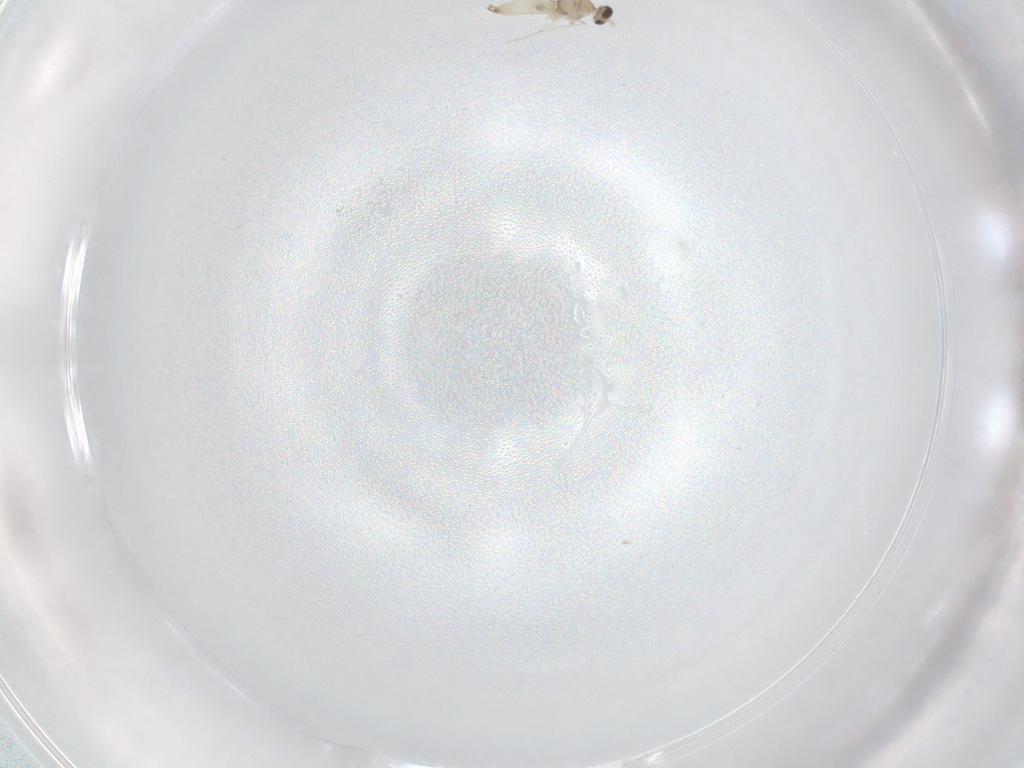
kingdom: Animalia
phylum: Arthropoda
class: Insecta
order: Diptera
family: Cecidomyiidae
